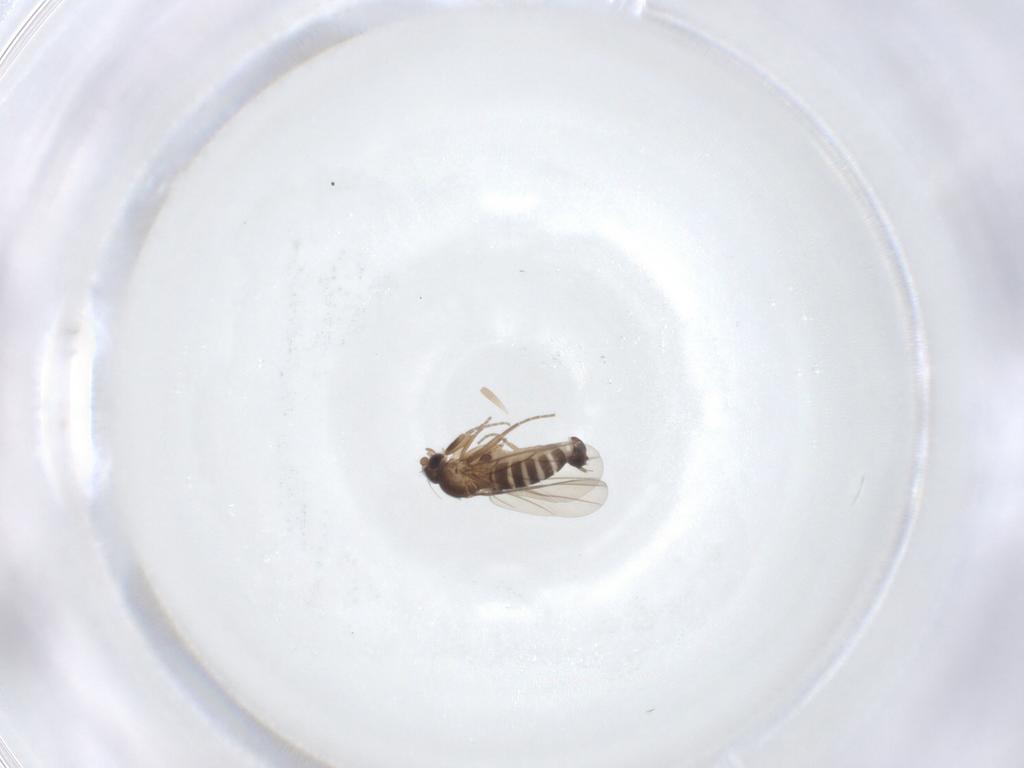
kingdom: Animalia
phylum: Arthropoda
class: Insecta
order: Diptera
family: Phoridae
